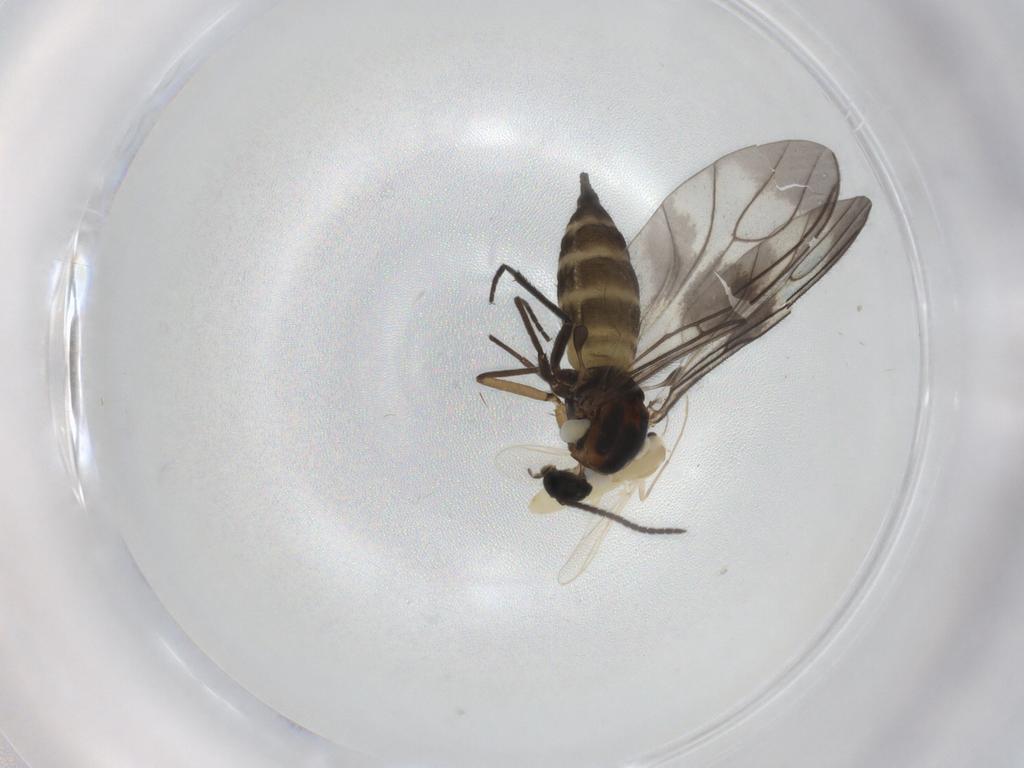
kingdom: Animalia
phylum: Arthropoda
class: Insecta
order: Diptera
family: Chironomidae
